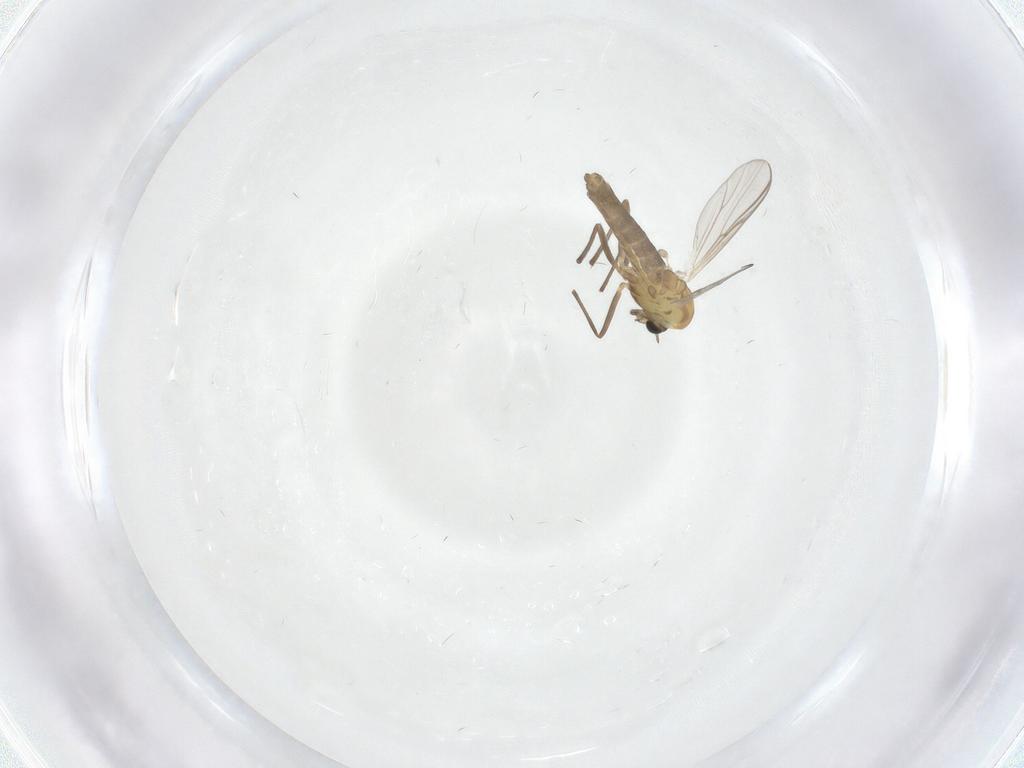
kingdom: Animalia
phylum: Arthropoda
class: Insecta
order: Diptera
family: Chironomidae
